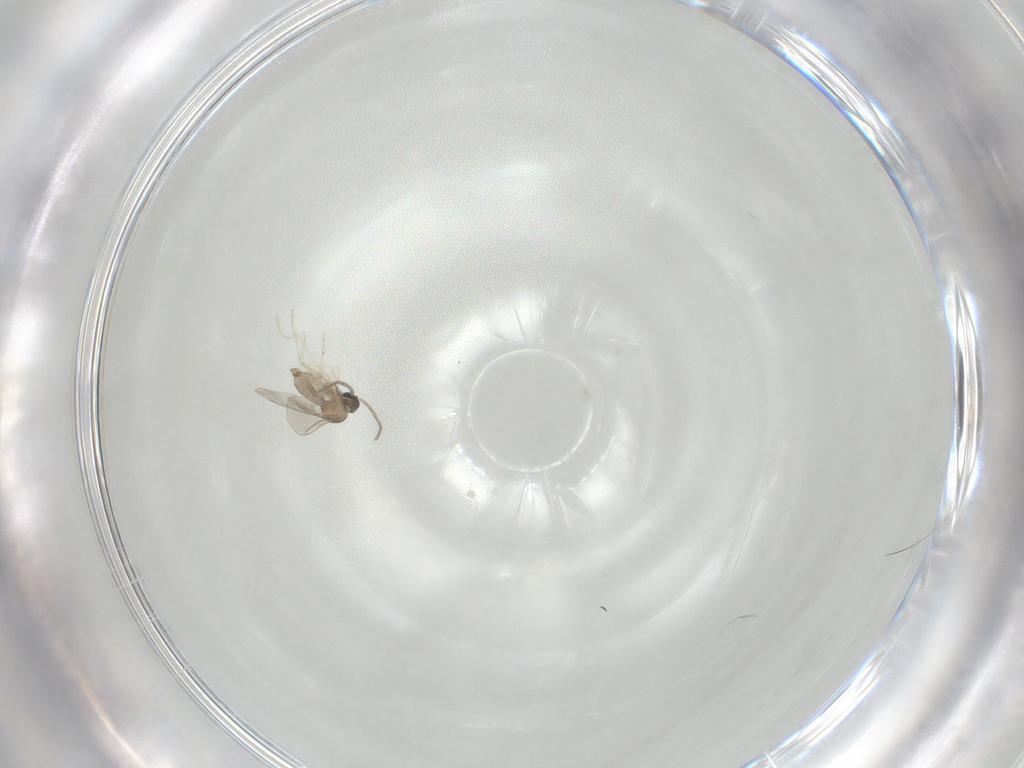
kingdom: Animalia
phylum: Arthropoda
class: Insecta
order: Diptera
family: Cecidomyiidae
